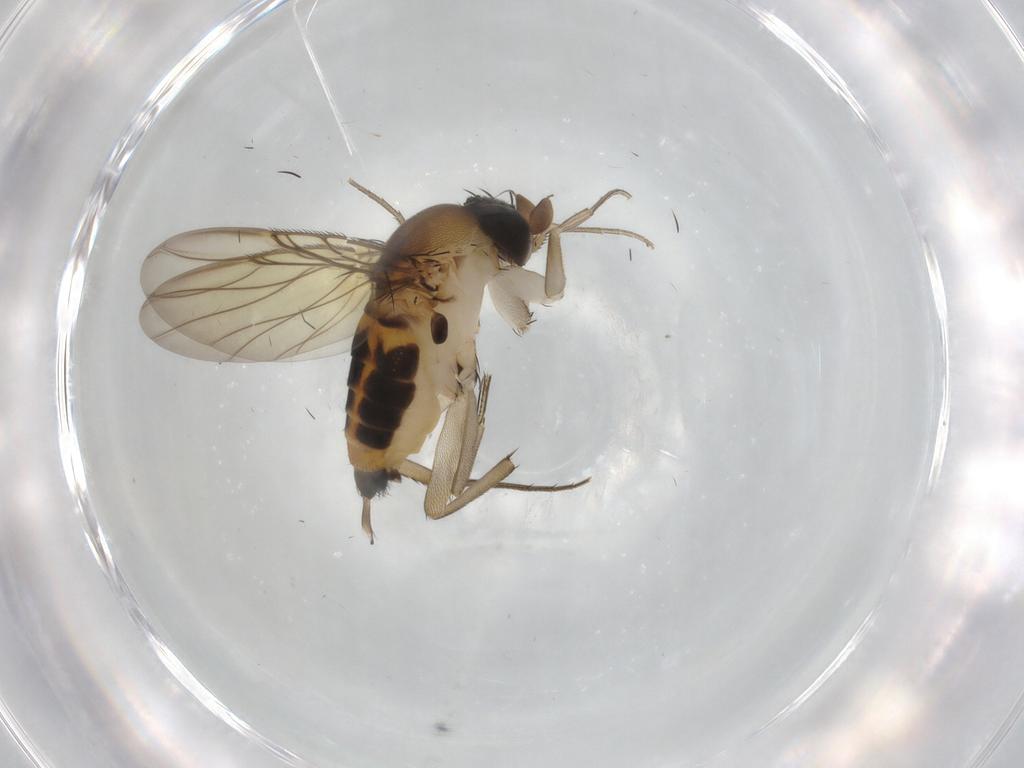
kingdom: Animalia
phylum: Arthropoda
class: Insecta
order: Diptera
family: Phoridae
